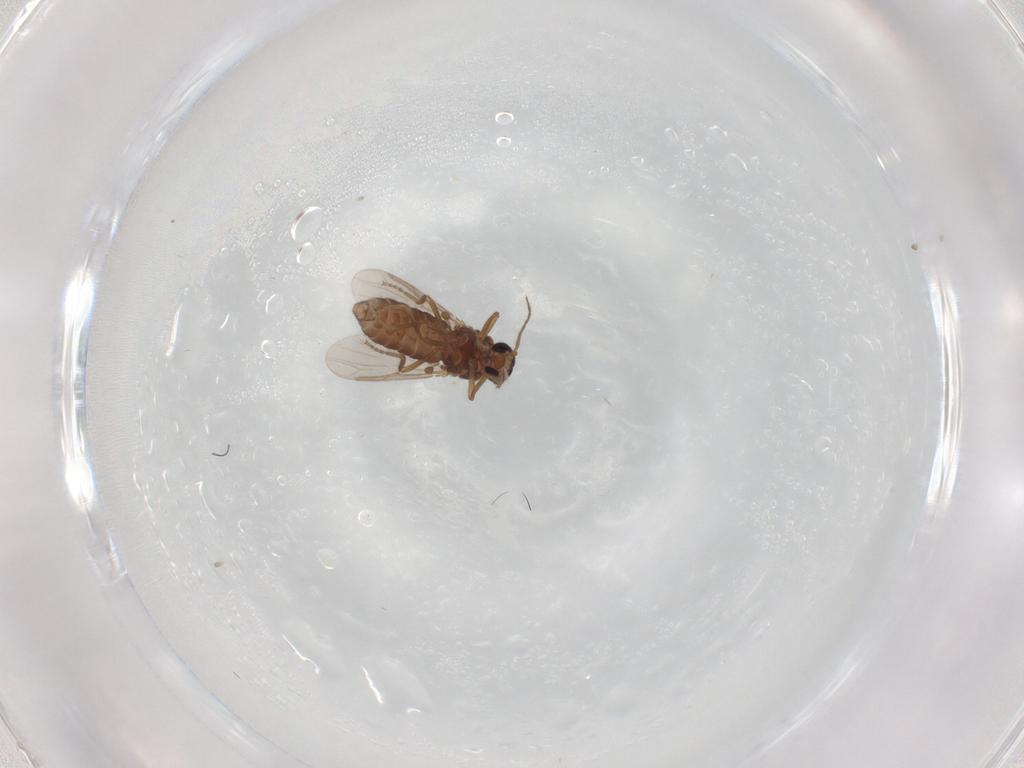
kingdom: Animalia
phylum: Arthropoda
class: Insecta
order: Diptera
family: Ceratopogonidae
